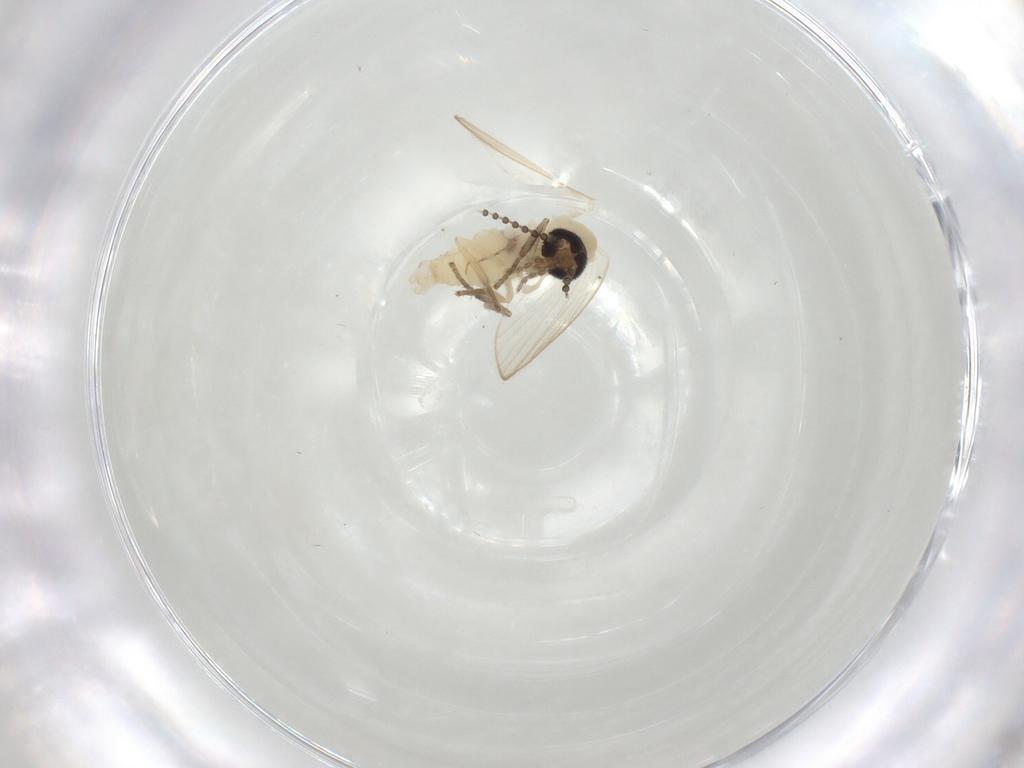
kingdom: Animalia
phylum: Arthropoda
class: Insecta
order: Diptera
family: Psychodidae
